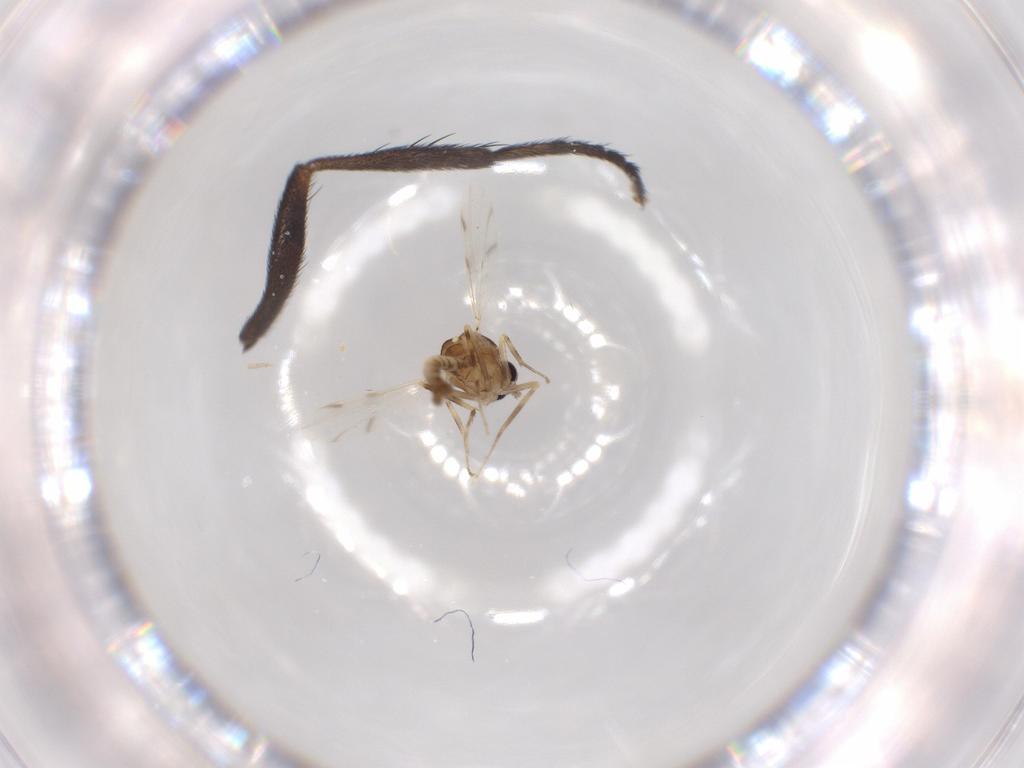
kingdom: Animalia
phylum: Arthropoda
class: Insecta
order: Diptera
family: Ceratopogonidae
